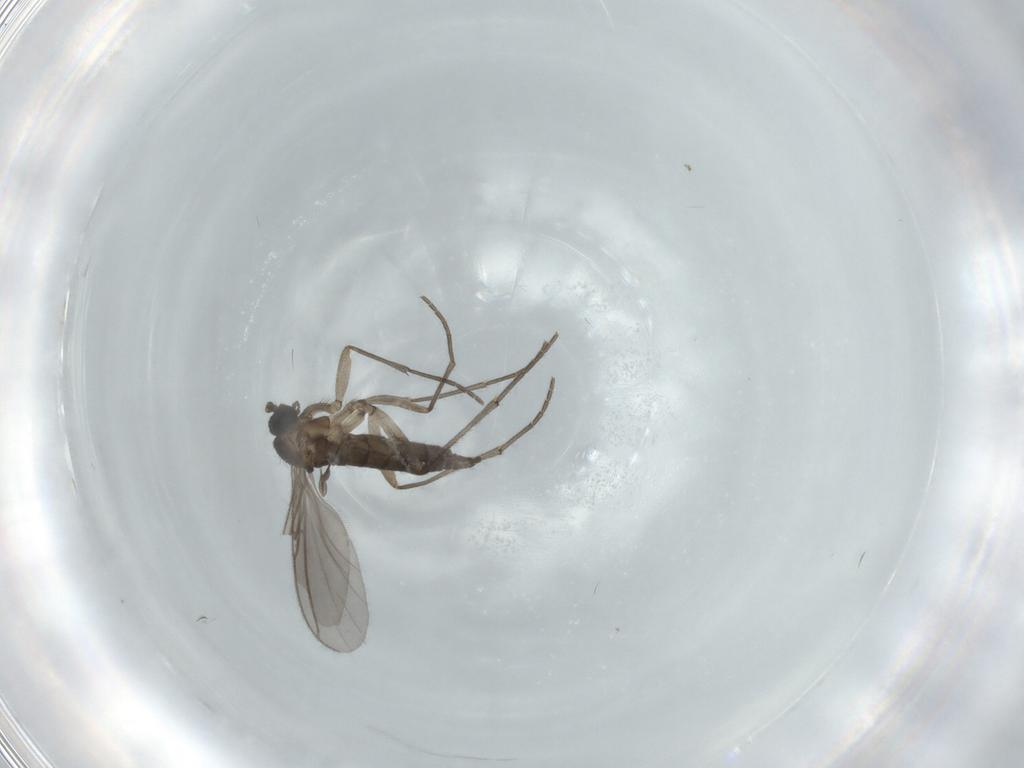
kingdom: Animalia
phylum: Arthropoda
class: Insecta
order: Diptera
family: Sciaridae
